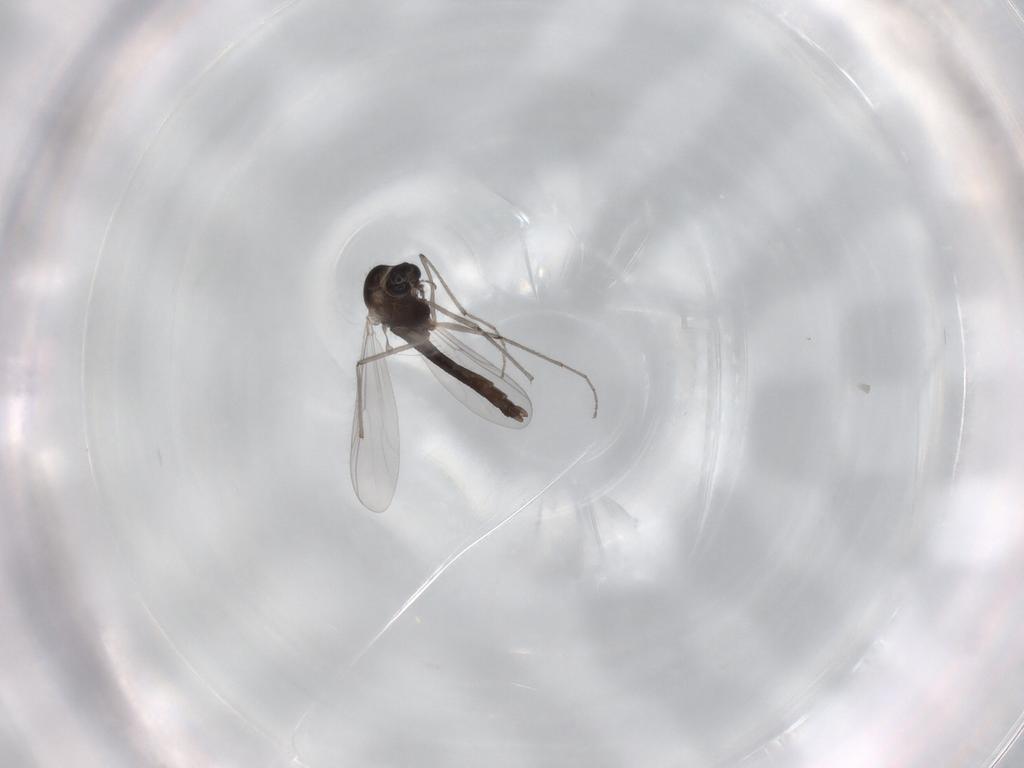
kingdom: Animalia
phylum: Arthropoda
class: Insecta
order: Diptera
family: Chironomidae
